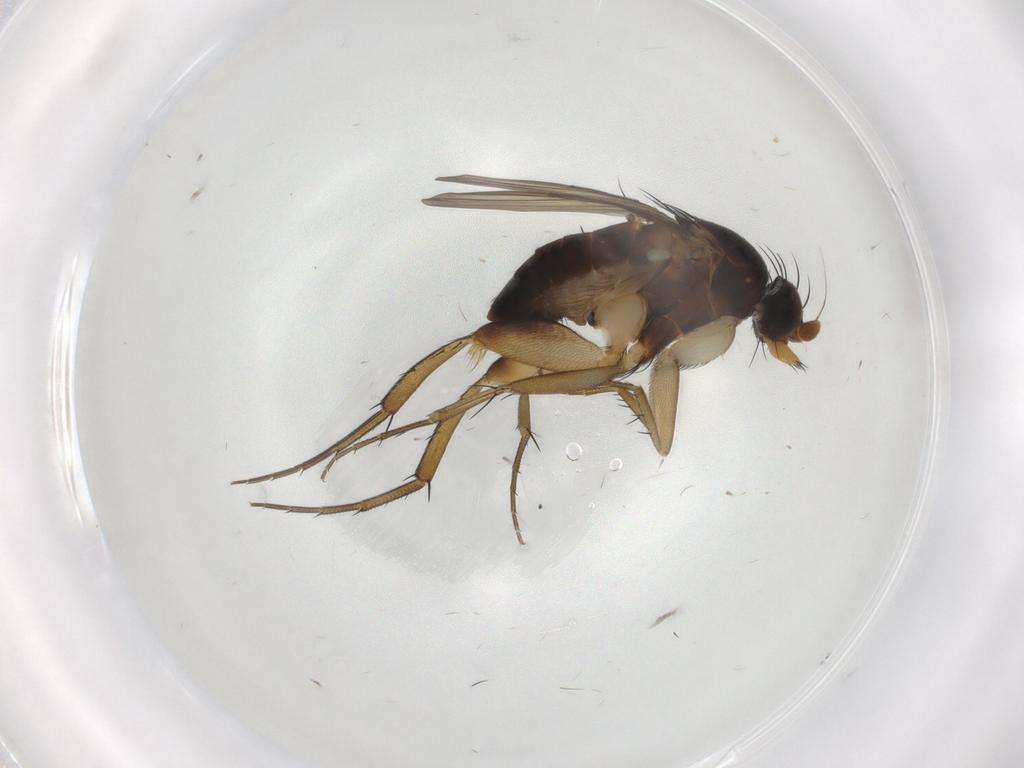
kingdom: Animalia
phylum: Arthropoda
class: Insecta
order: Diptera
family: Phoridae
